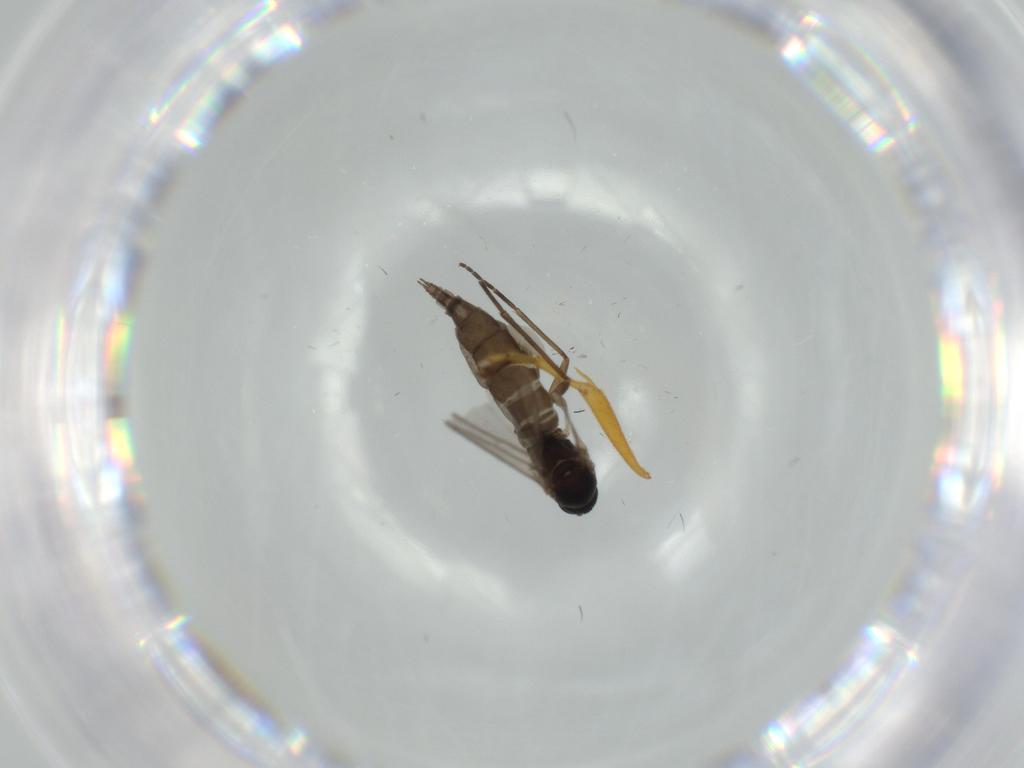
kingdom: Animalia
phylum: Arthropoda
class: Insecta
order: Diptera
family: Sciaridae
